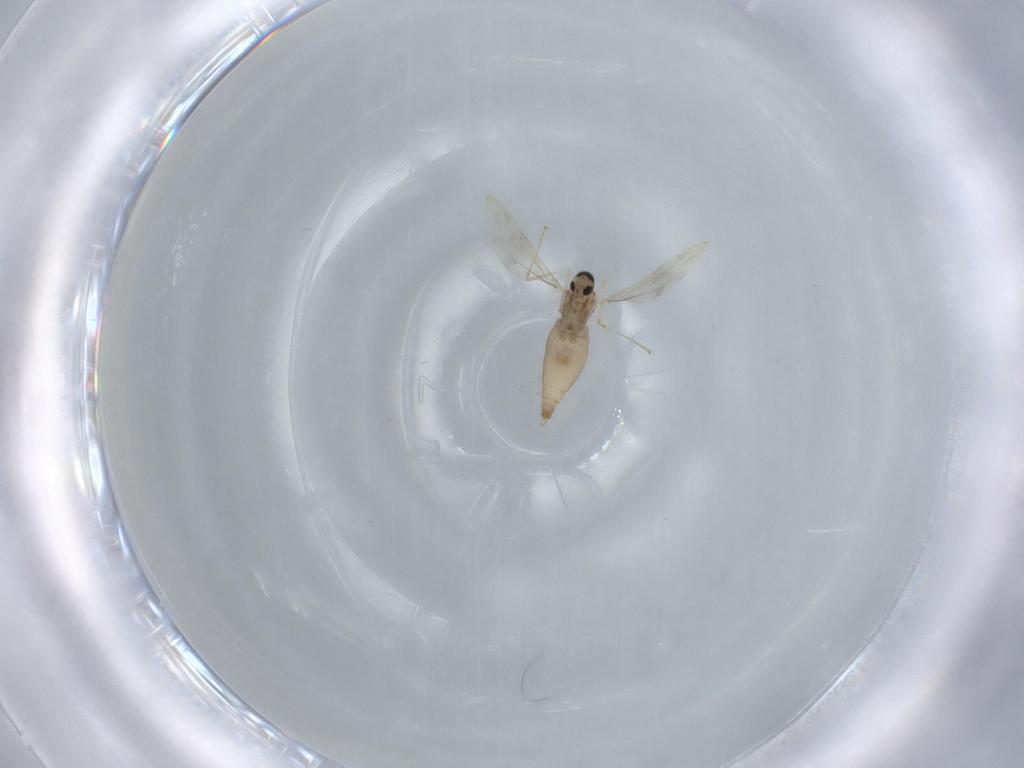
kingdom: Animalia
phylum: Arthropoda
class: Insecta
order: Diptera
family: Cecidomyiidae
